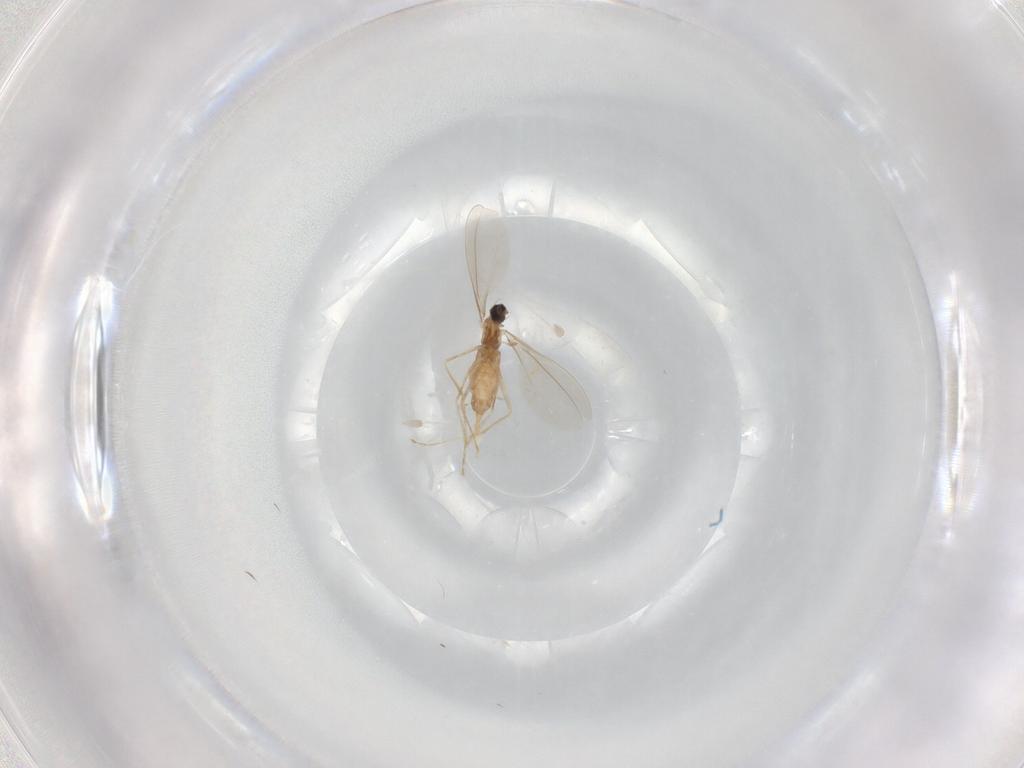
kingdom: Animalia
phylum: Arthropoda
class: Insecta
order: Diptera
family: Cecidomyiidae
